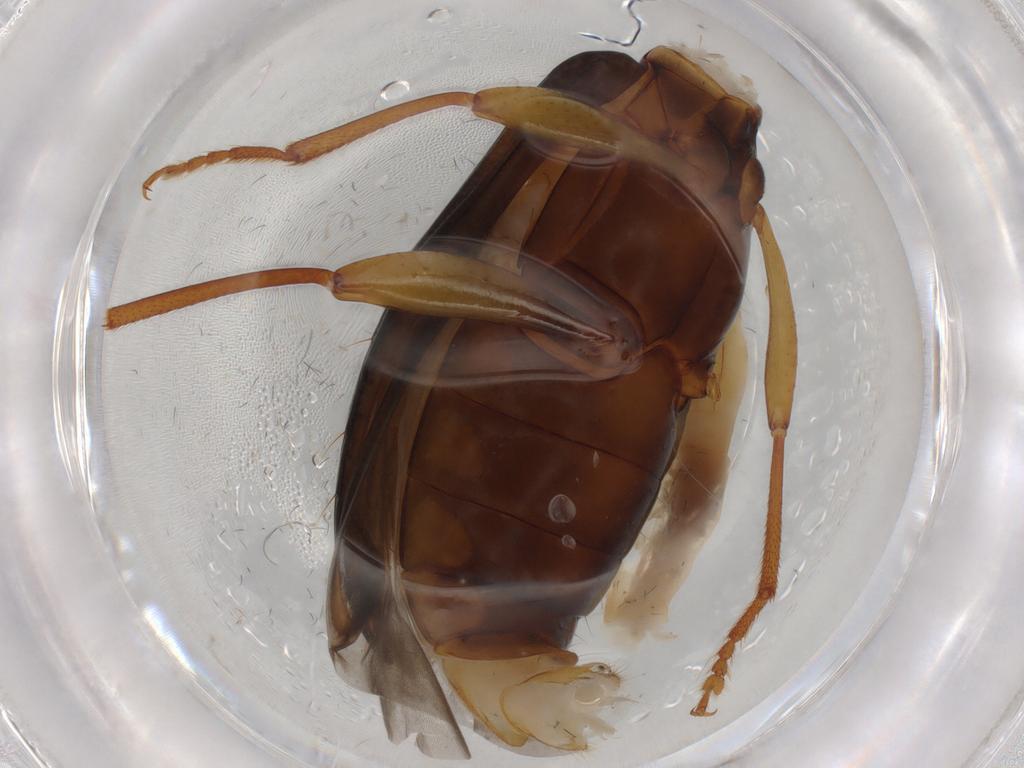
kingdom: Animalia
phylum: Arthropoda
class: Insecta
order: Coleoptera
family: Tenebrionidae
